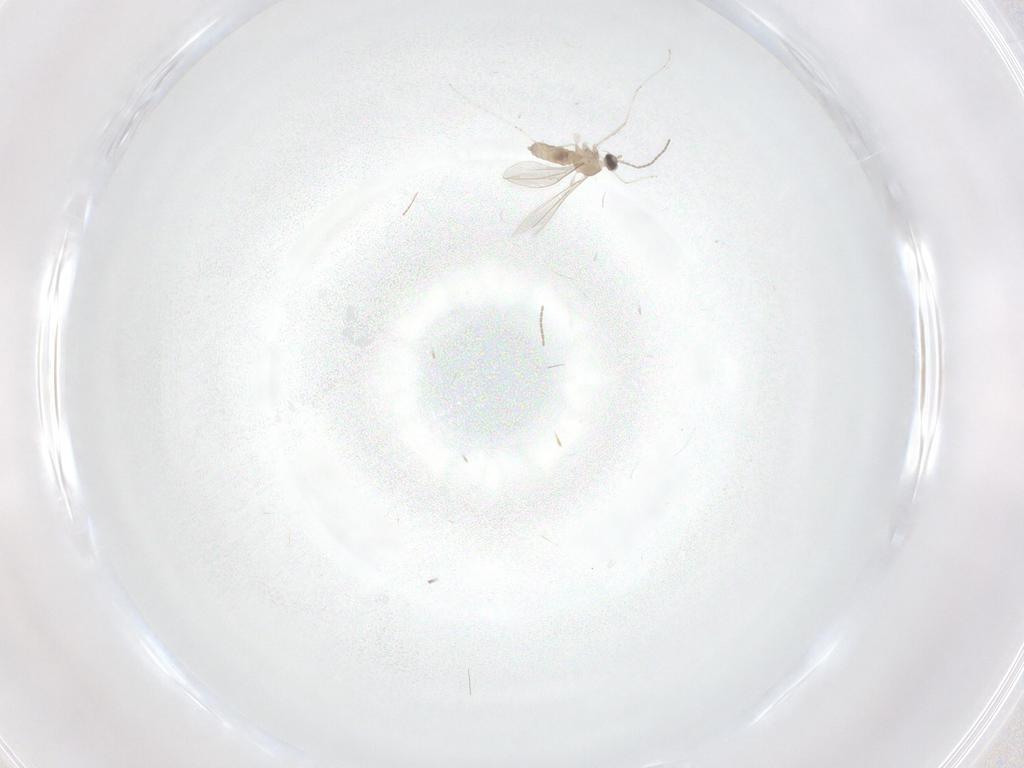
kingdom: Animalia
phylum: Arthropoda
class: Insecta
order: Diptera
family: Cecidomyiidae
